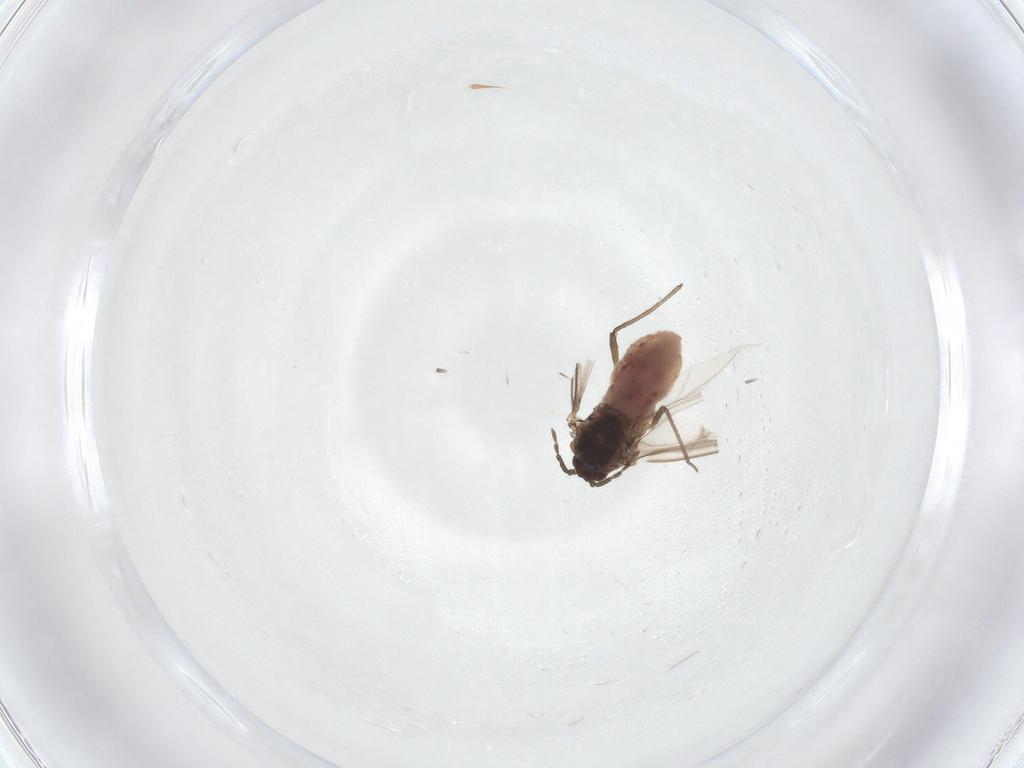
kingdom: Animalia
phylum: Arthropoda
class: Insecta
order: Hemiptera
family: Aphididae
